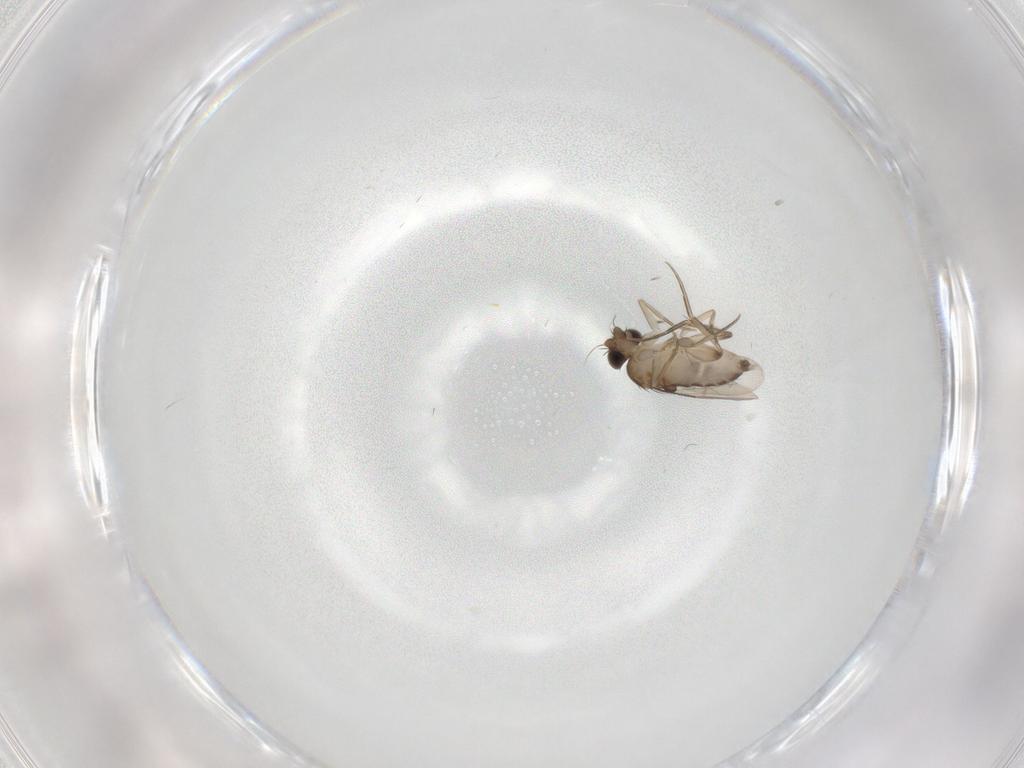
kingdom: Animalia
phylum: Arthropoda
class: Insecta
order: Diptera
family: Phoridae
